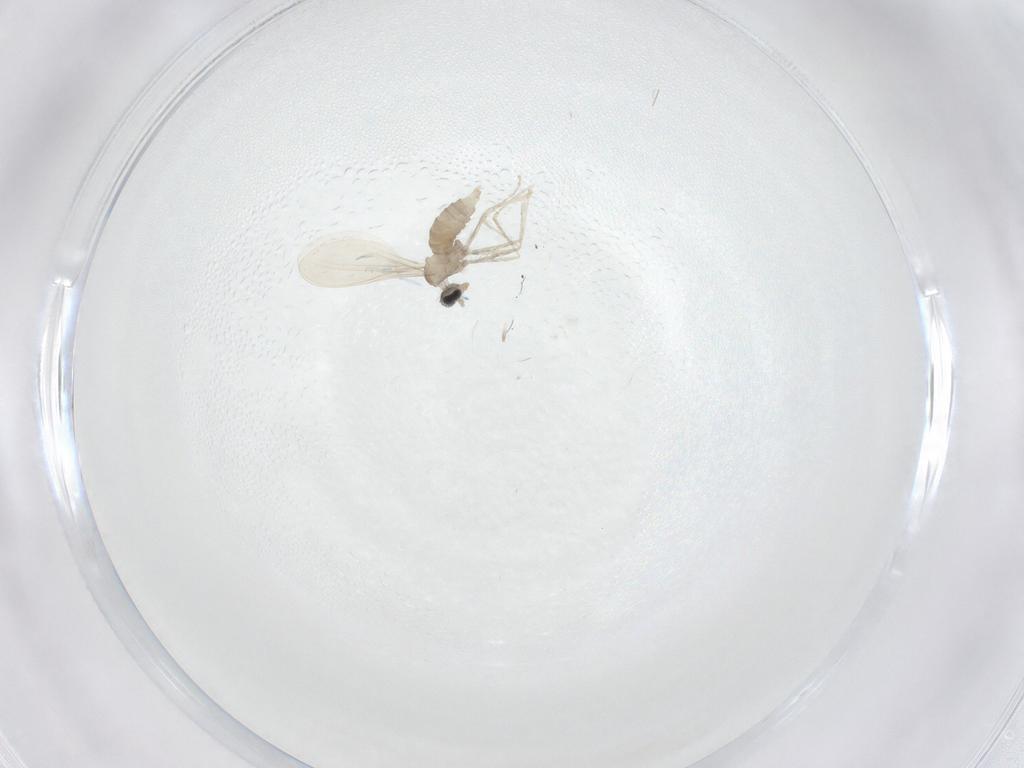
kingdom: Animalia
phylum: Arthropoda
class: Insecta
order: Diptera
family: Cecidomyiidae
